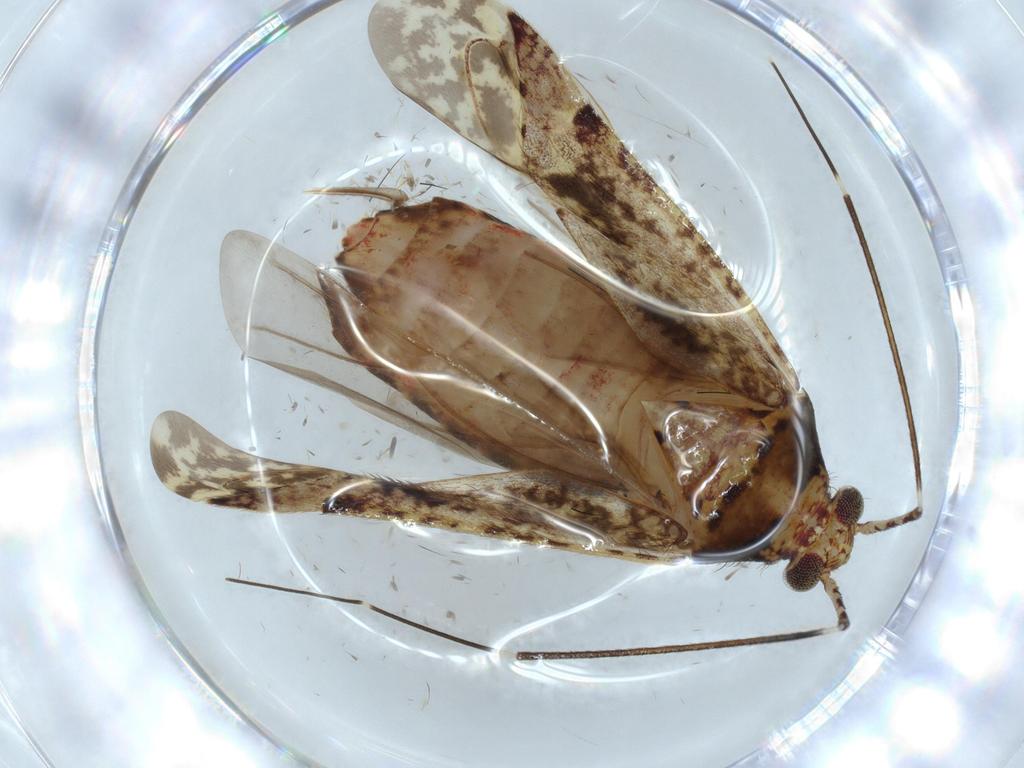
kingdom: Animalia
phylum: Arthropoda
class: Insecta
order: Hemiptera
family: Miridae
